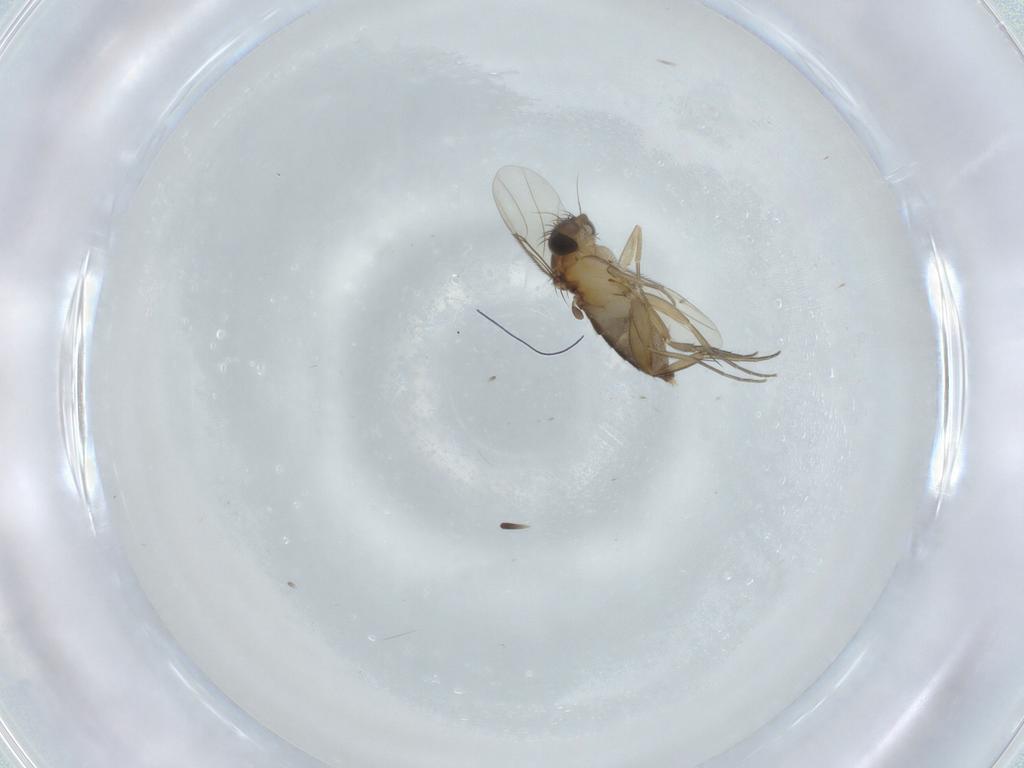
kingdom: Animalia
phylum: Arthropoda
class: Insecta
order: Diptera
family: Phoridae
